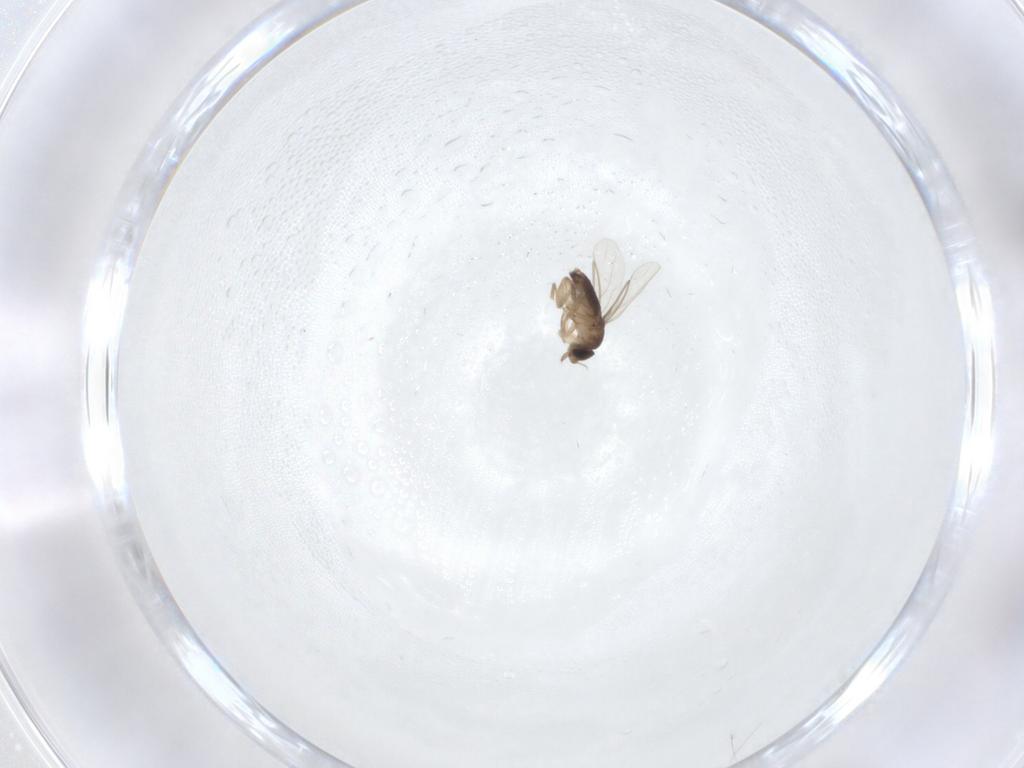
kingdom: Animalia
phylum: Arthropoda
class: Insecta
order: Diptera
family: Phoridae
